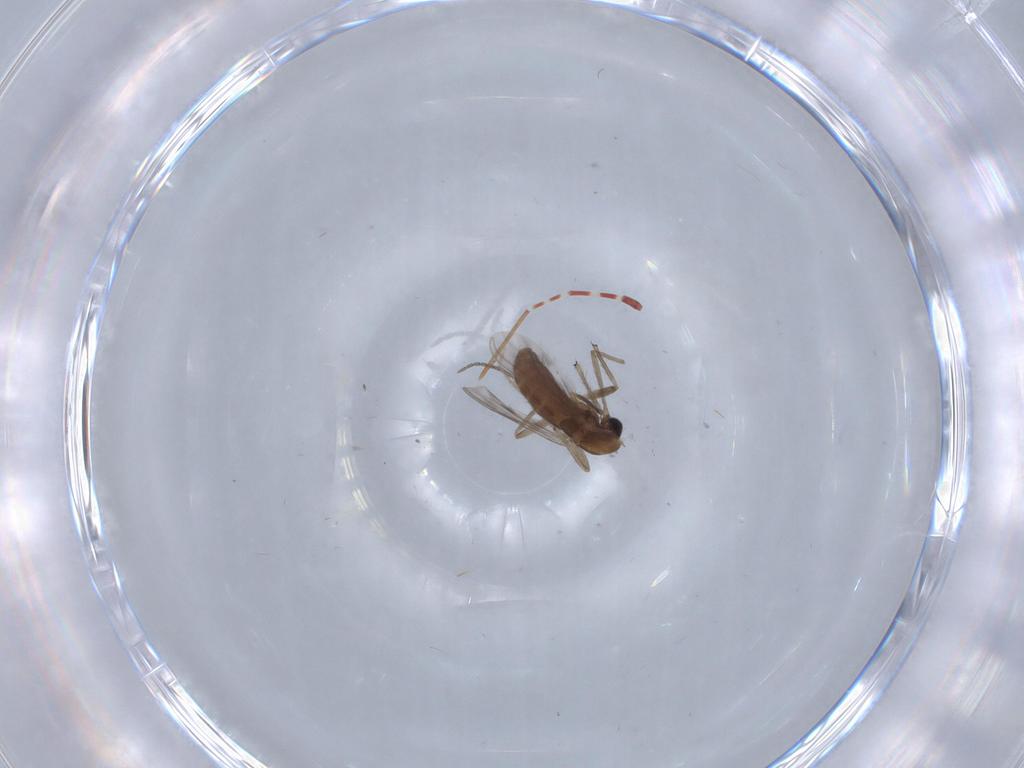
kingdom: Animalia
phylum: Arthropoda
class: Insecta
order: Diptera
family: Chironomidae
